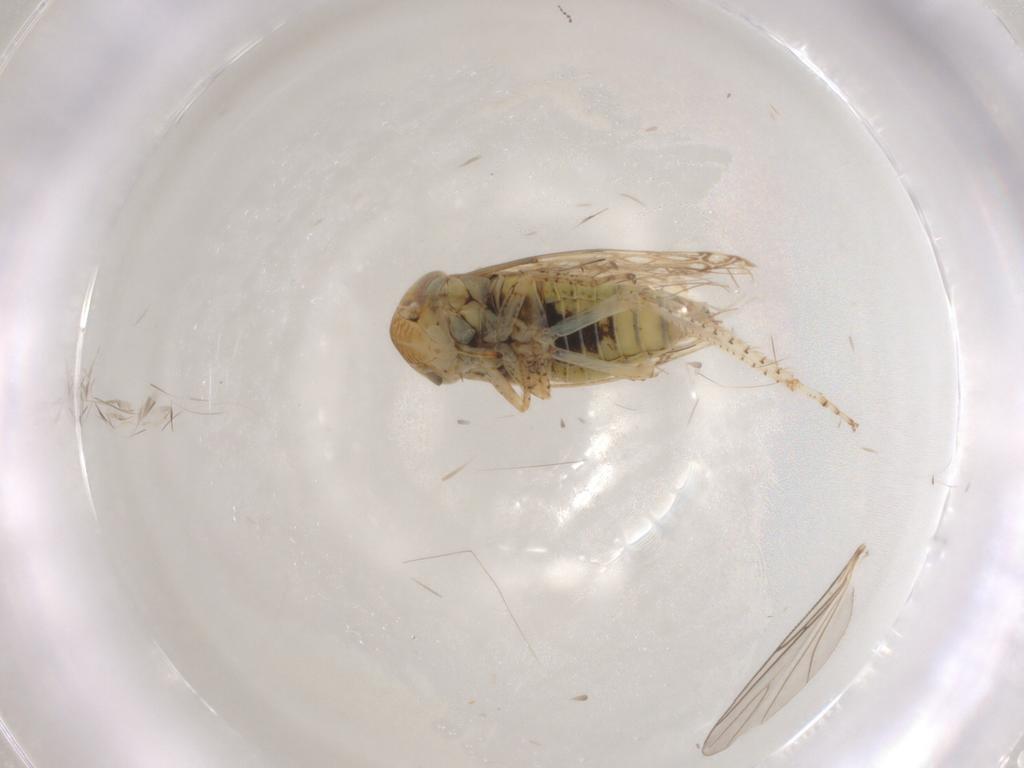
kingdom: Animalia
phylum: Arthropoda
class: Insecta
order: Hemiptera
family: Cicadellidae
